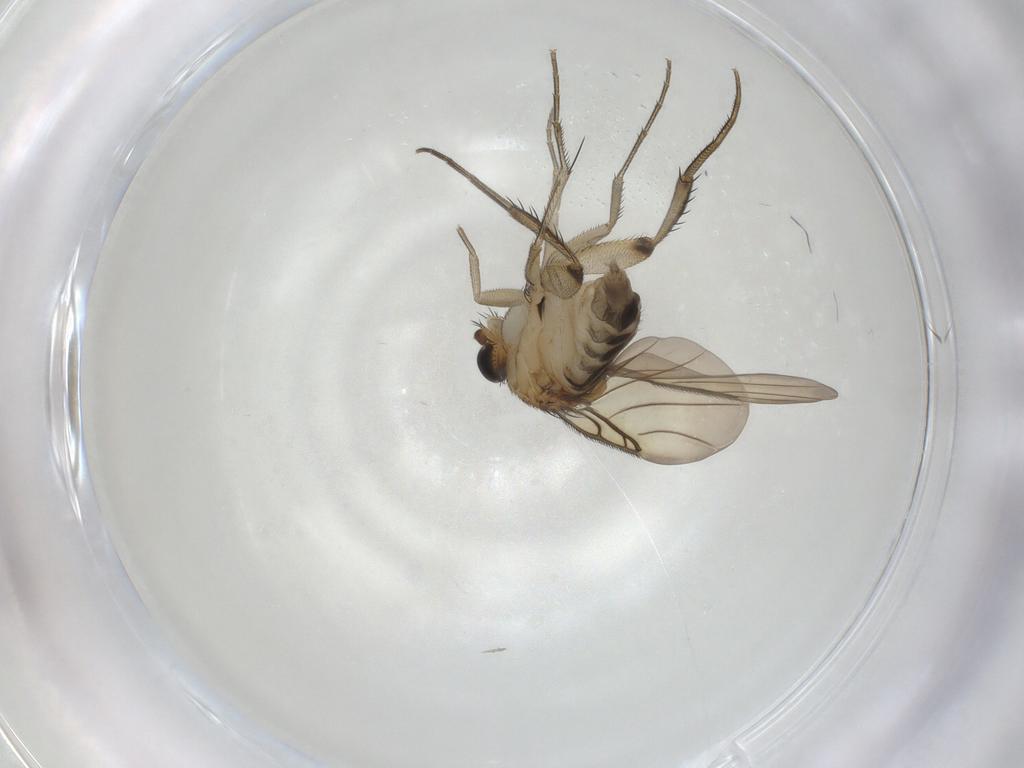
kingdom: Animalia
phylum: Arthropoda
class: Insecta
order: Diptera
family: Phoridae
